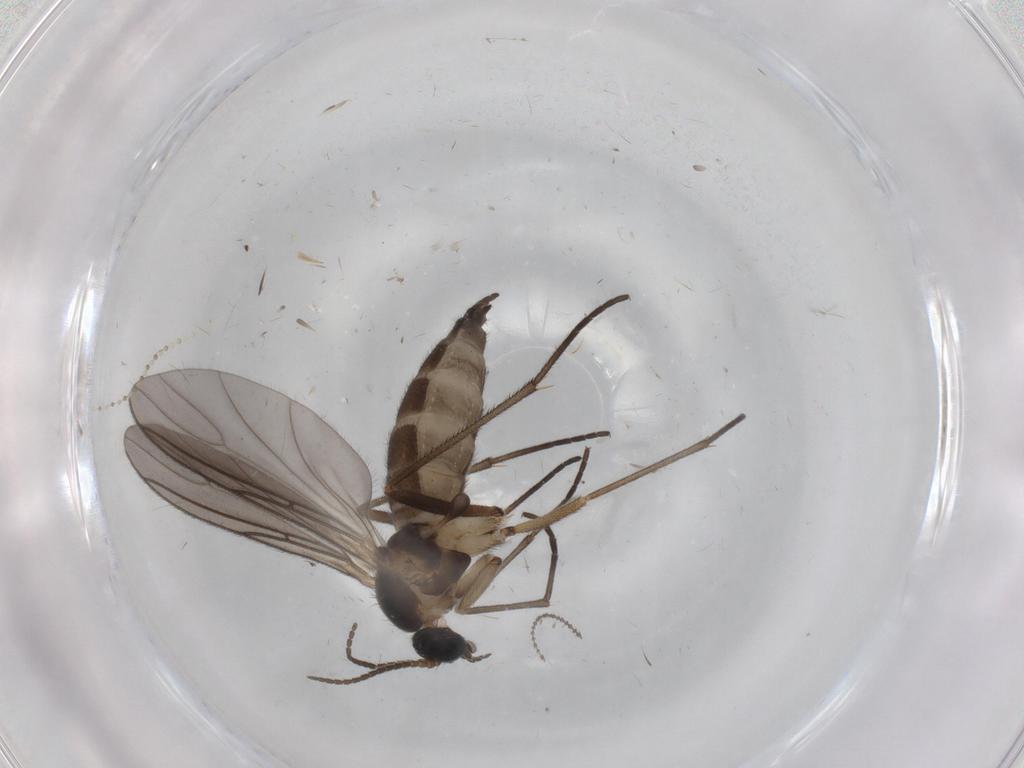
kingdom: Animalia
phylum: Arthropoda
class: Insecta
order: Diptera
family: Sciaridae
